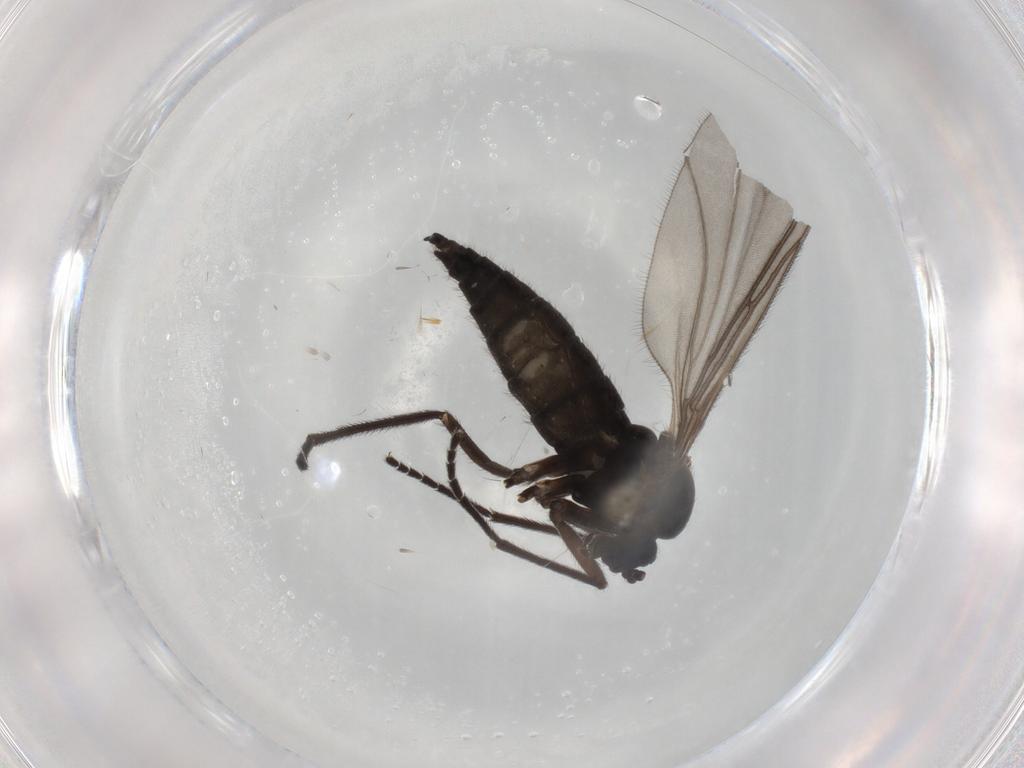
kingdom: Animalia
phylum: Arthropoda
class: Insecta
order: Diptera
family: Sciaridae
